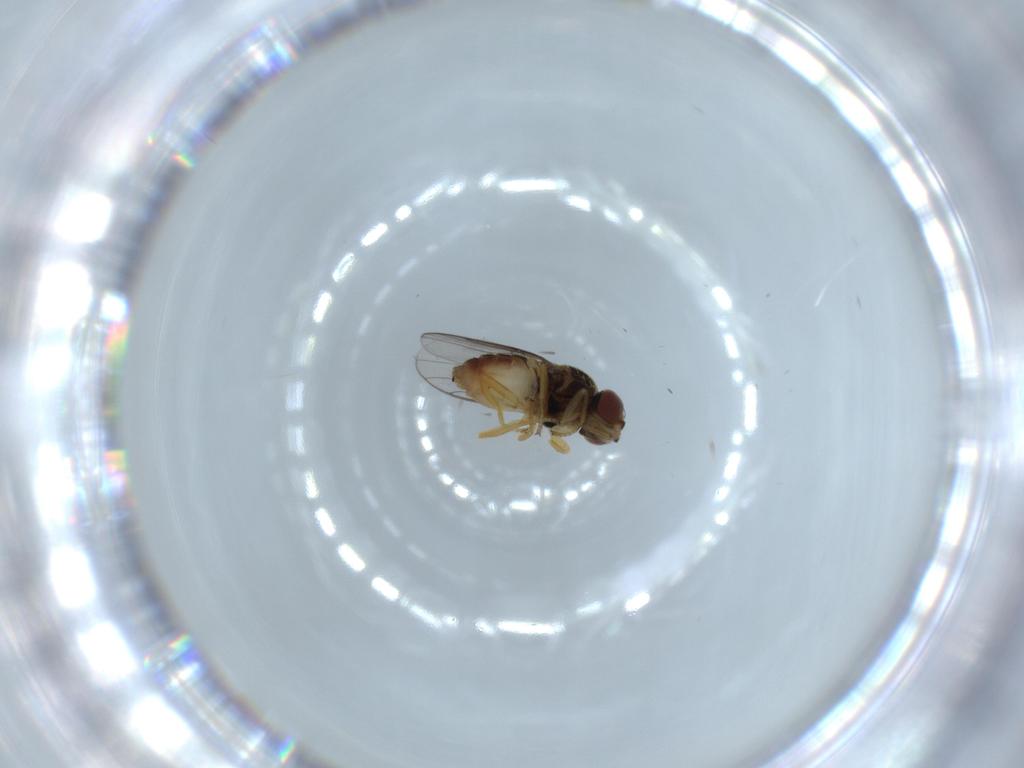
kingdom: Animalia
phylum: Arthropoda
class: Insecta
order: Diptera
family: Chloropidae
